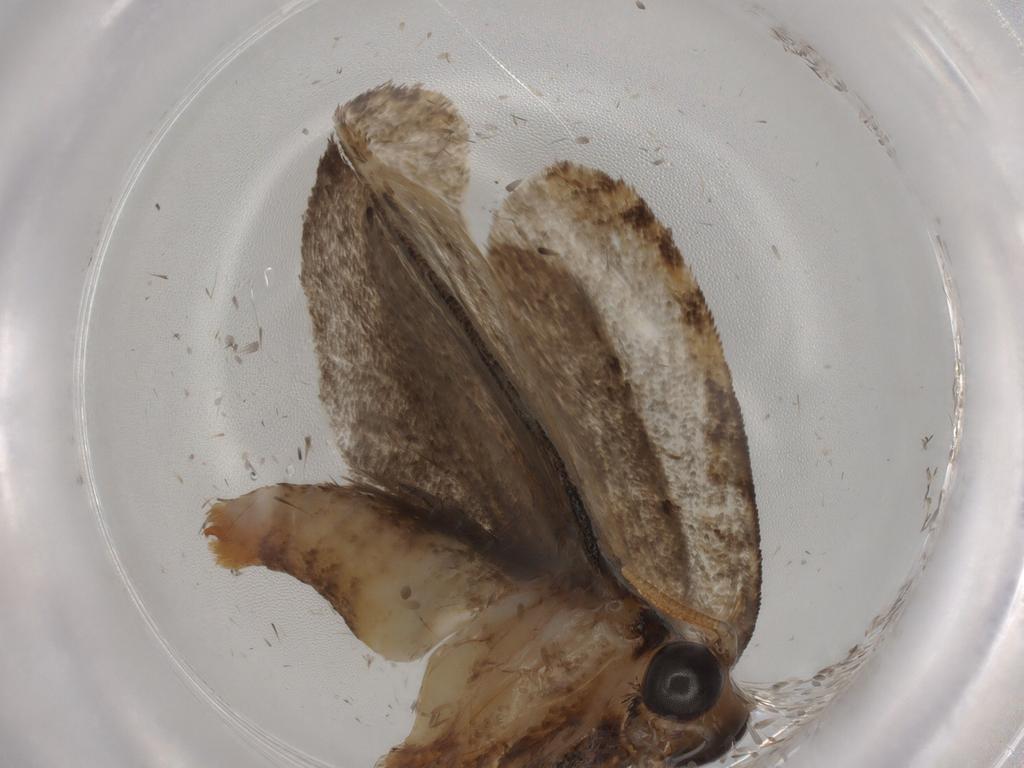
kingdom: Animalia
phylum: Arthropoda
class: Insecta
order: Lepidoptera
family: Tineidae
